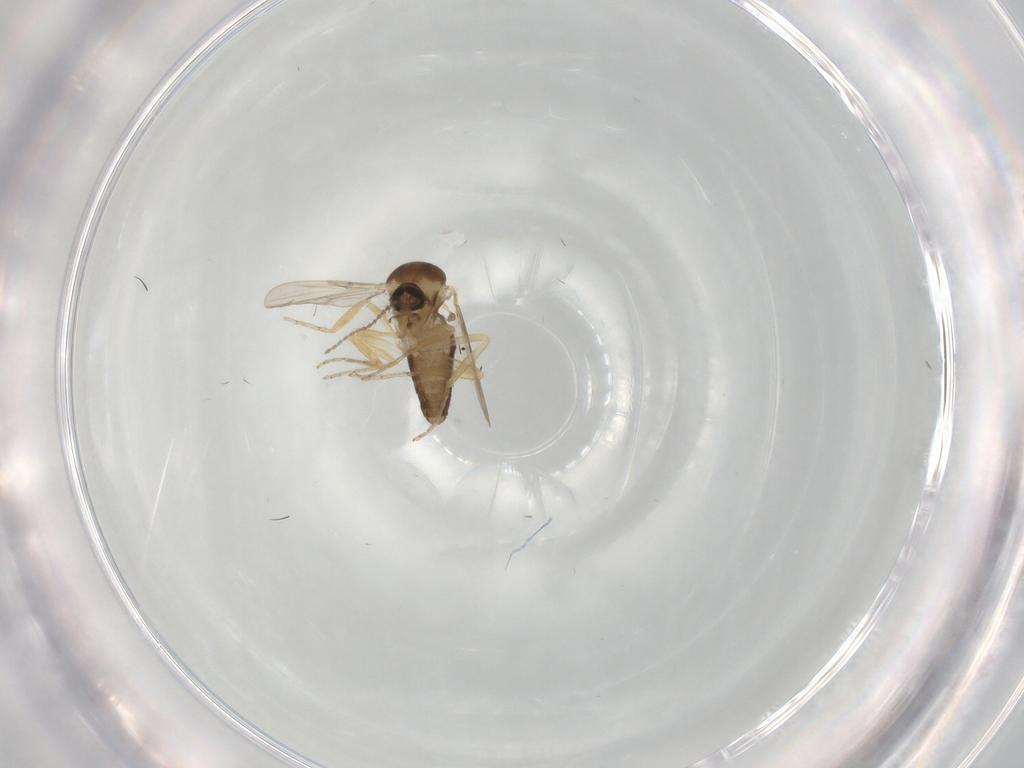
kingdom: Animalia
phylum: Arthropoda
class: Insecta
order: Diptera
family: Ceratopogonidae
